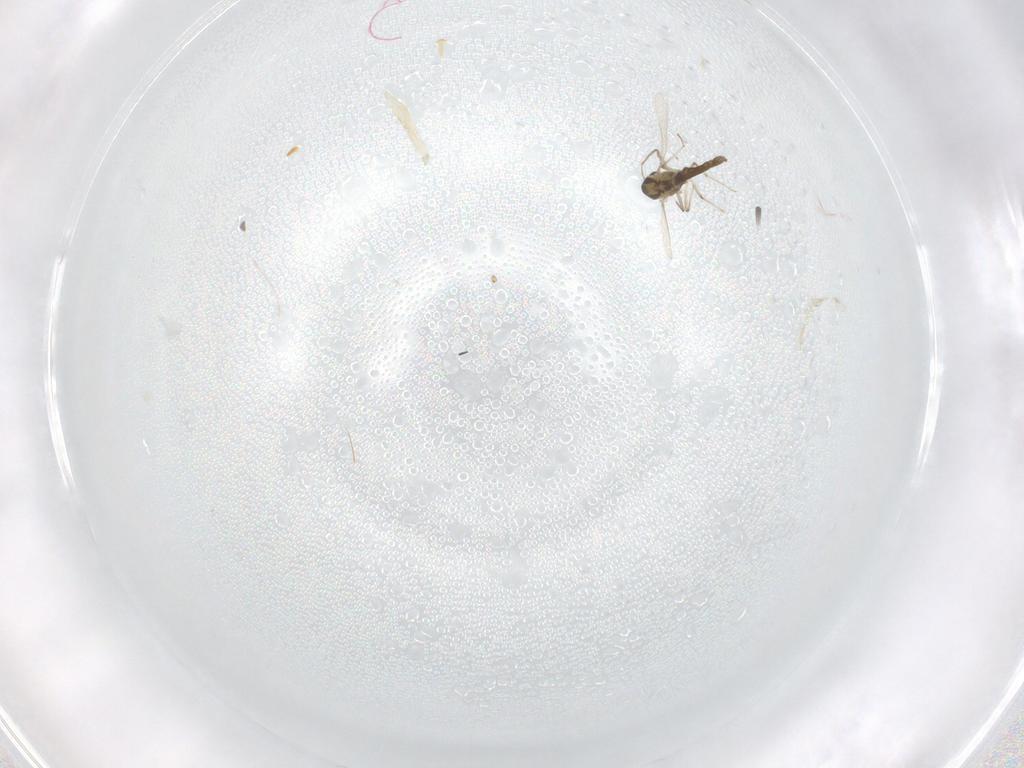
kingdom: Animalia
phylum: Arthropoda
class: Insecta
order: Diptera
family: Chironomidae
